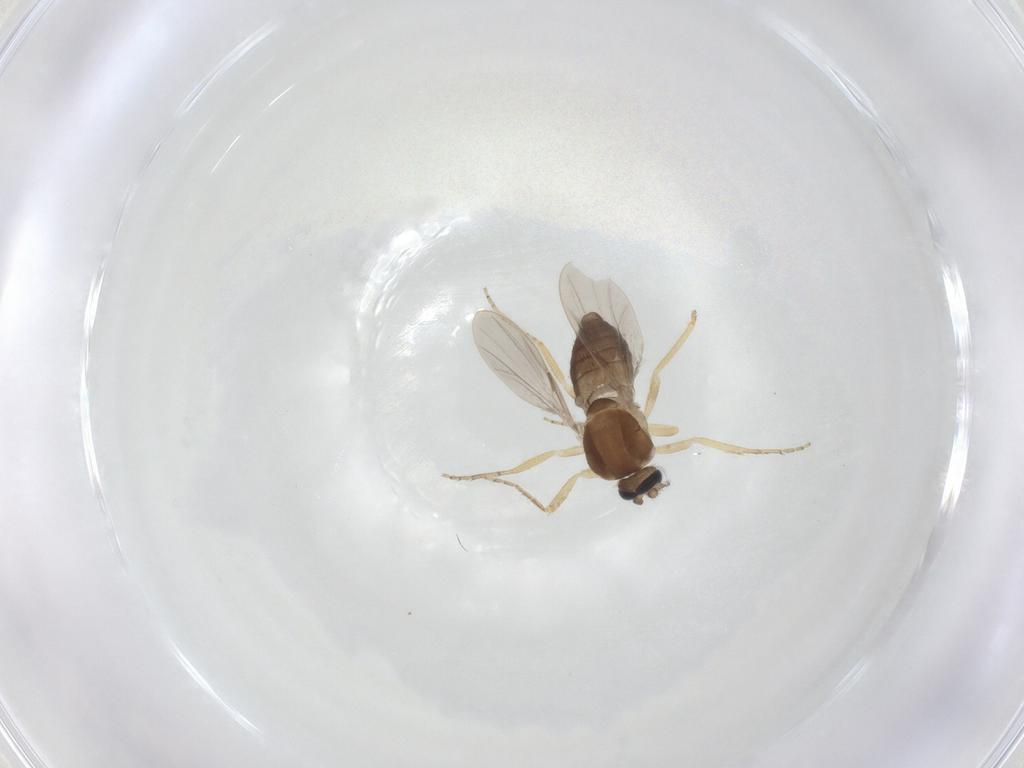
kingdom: Animalia
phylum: Arthropoda
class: Insecta
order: Diptera
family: Ceratopogonidae
